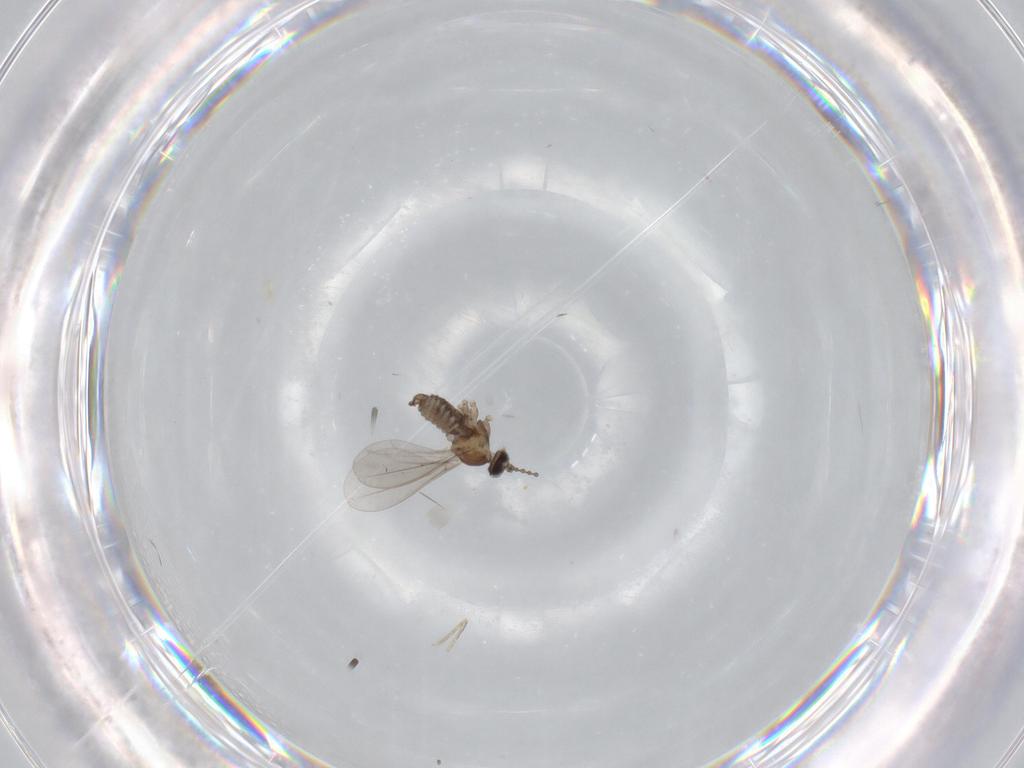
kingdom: Animalia
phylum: Arthropoda
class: Insecta
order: Diptera
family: Cecidomyiidae
